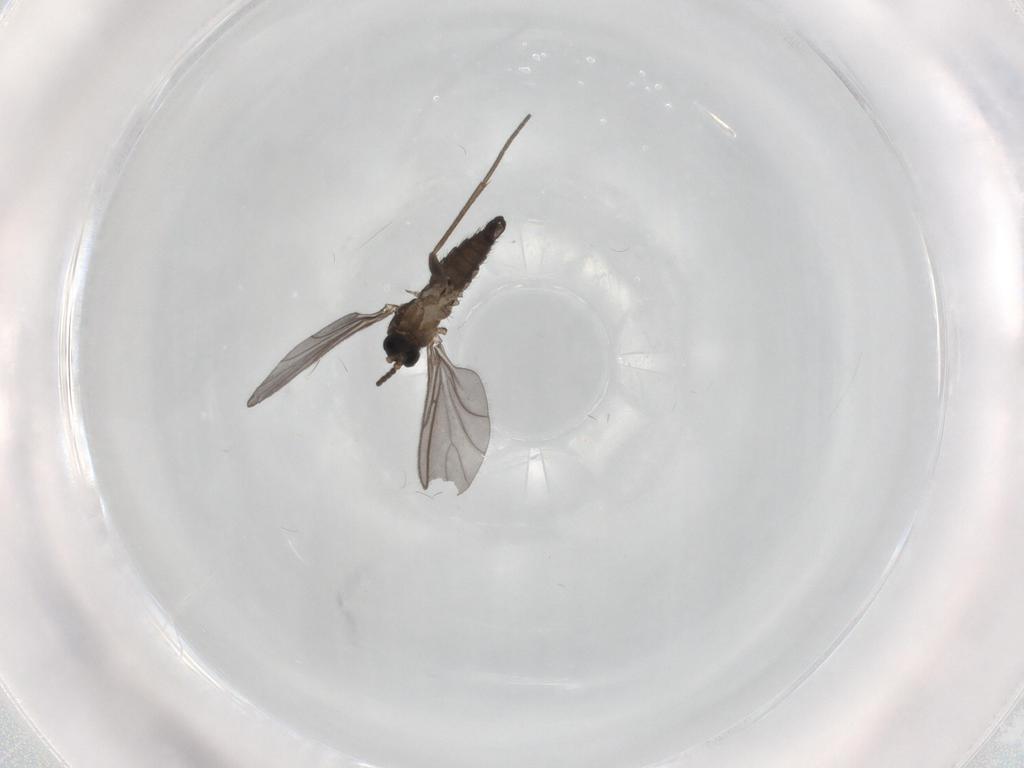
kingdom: Animalia
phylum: Arthropoda
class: Insecta
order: Diptera
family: Sciaridae
